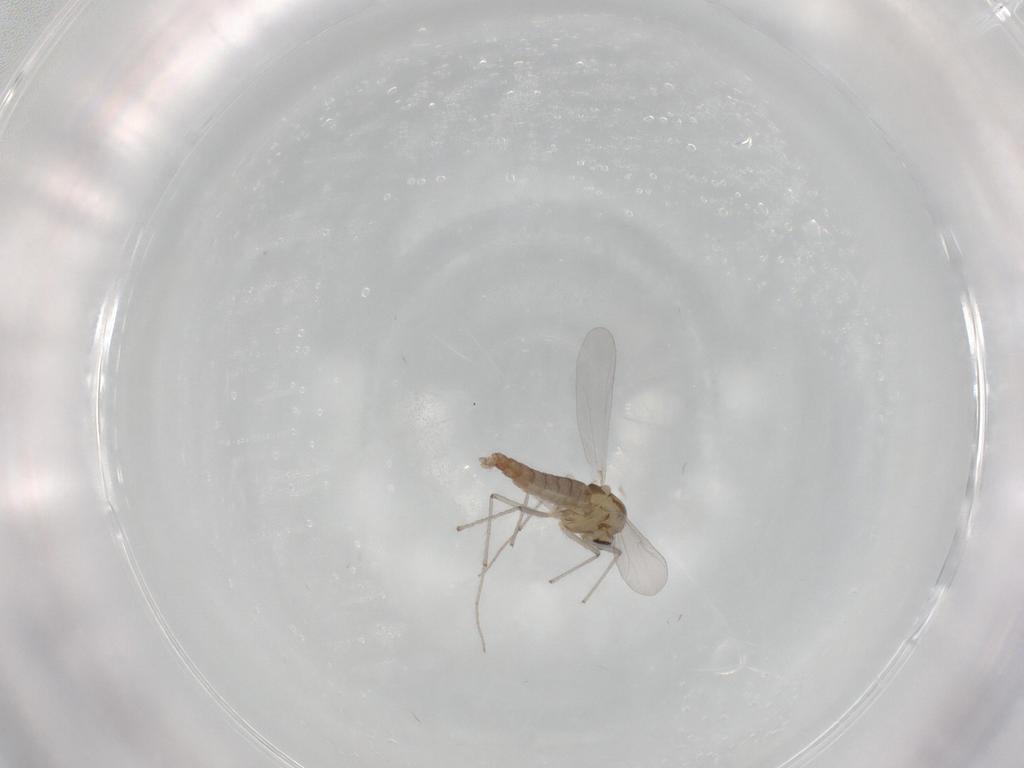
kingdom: Animalia
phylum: Arthropoda
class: Insecta
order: Diptera
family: Chironomidae
